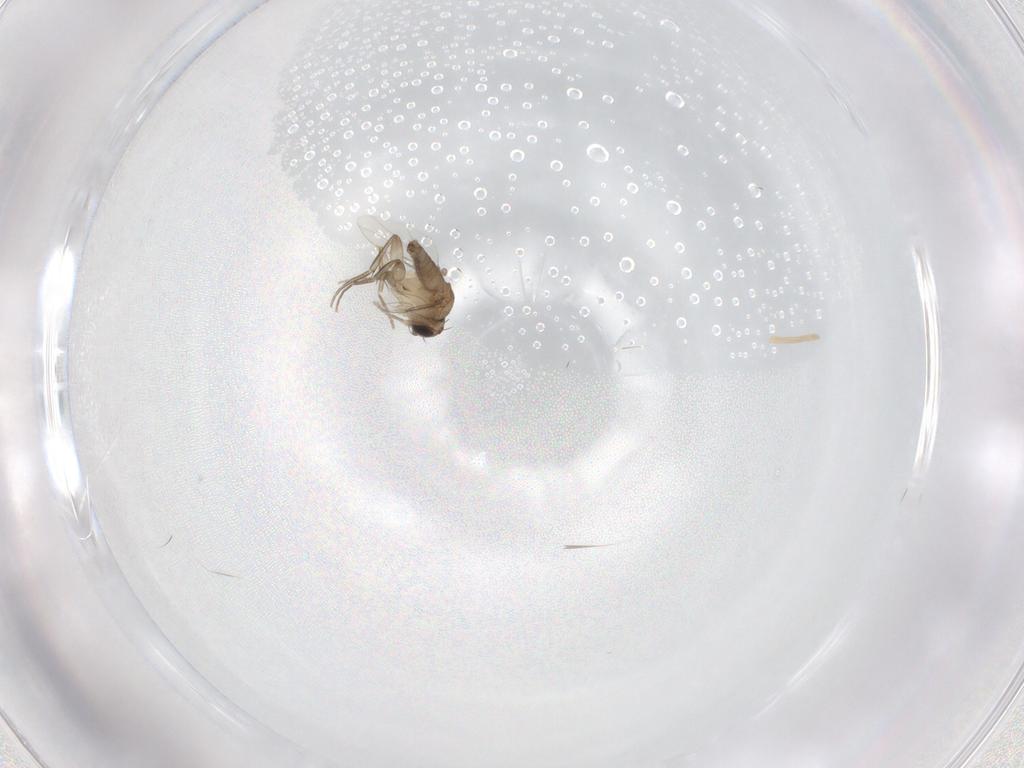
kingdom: Animalia
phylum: Arthropoda
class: Insecta
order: Diptera
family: Phoridae
